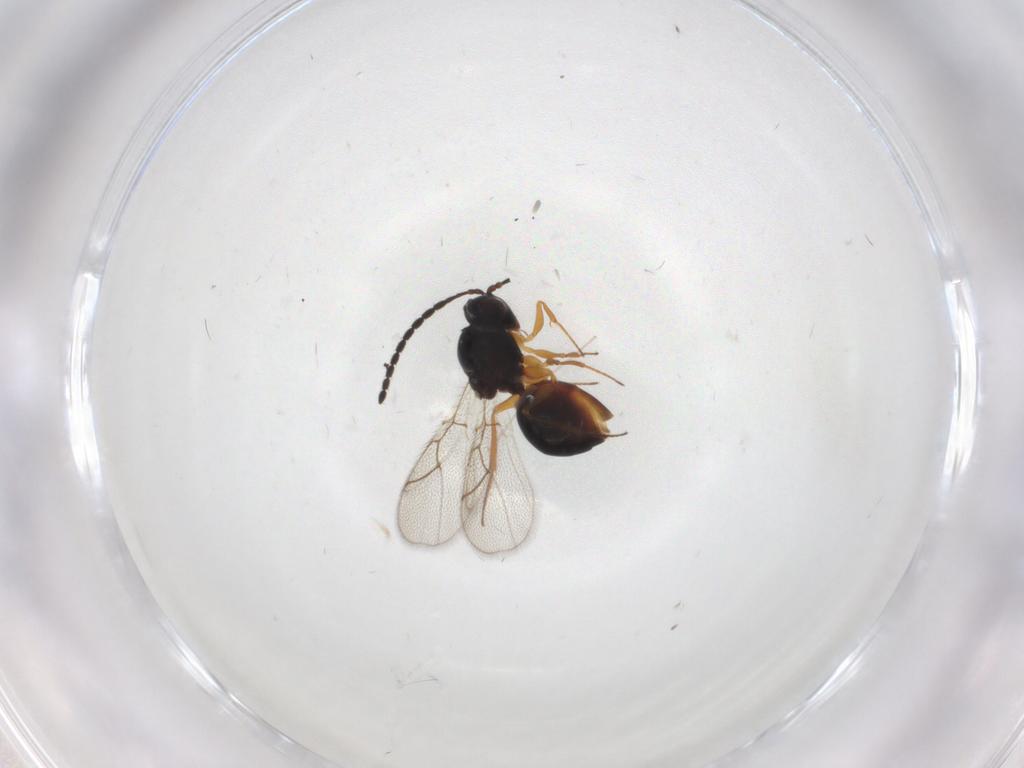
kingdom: Animalia
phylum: Arthropoda
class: Insecta
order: Hymenoptera
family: Figitidae
